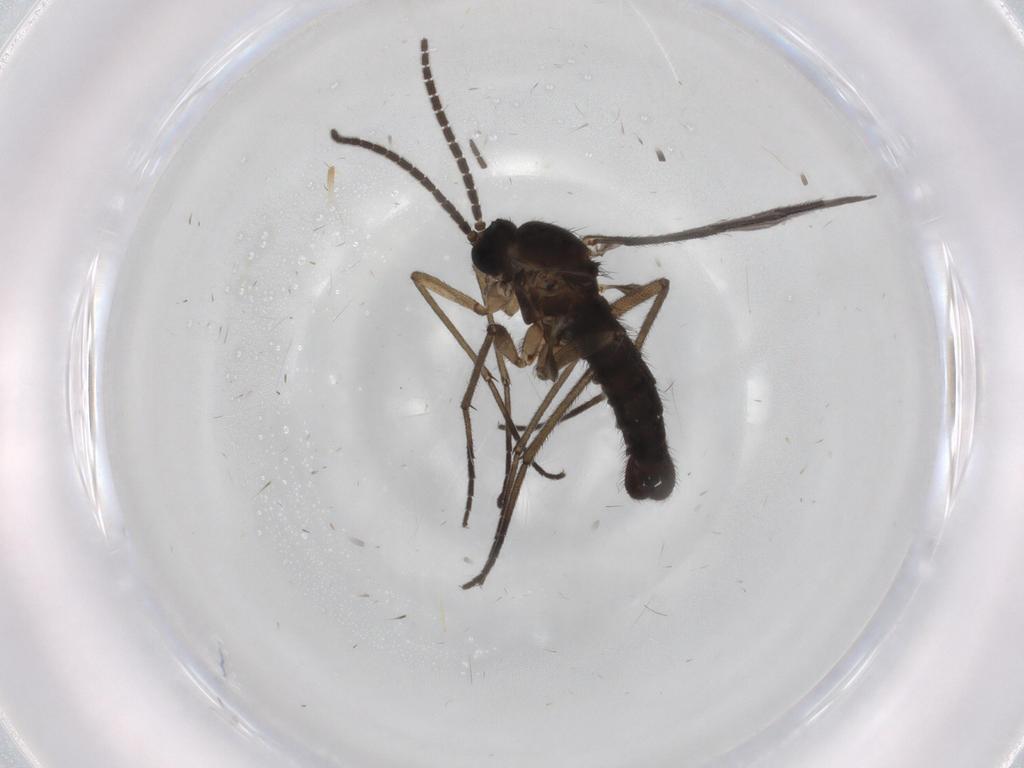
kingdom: Animalia
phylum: Arthropoda
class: Insecta
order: Diptera
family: Sciaridae
